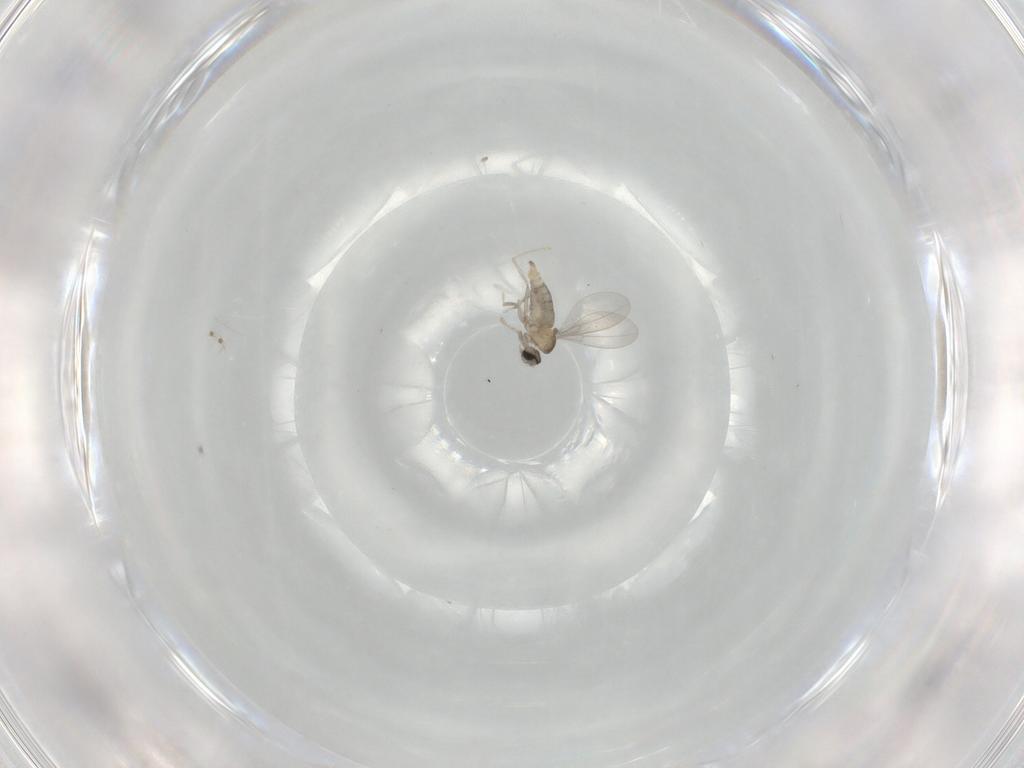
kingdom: Animalia
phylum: Arthropoda
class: Insecta
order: Diptera
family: Cecidomyiidae
